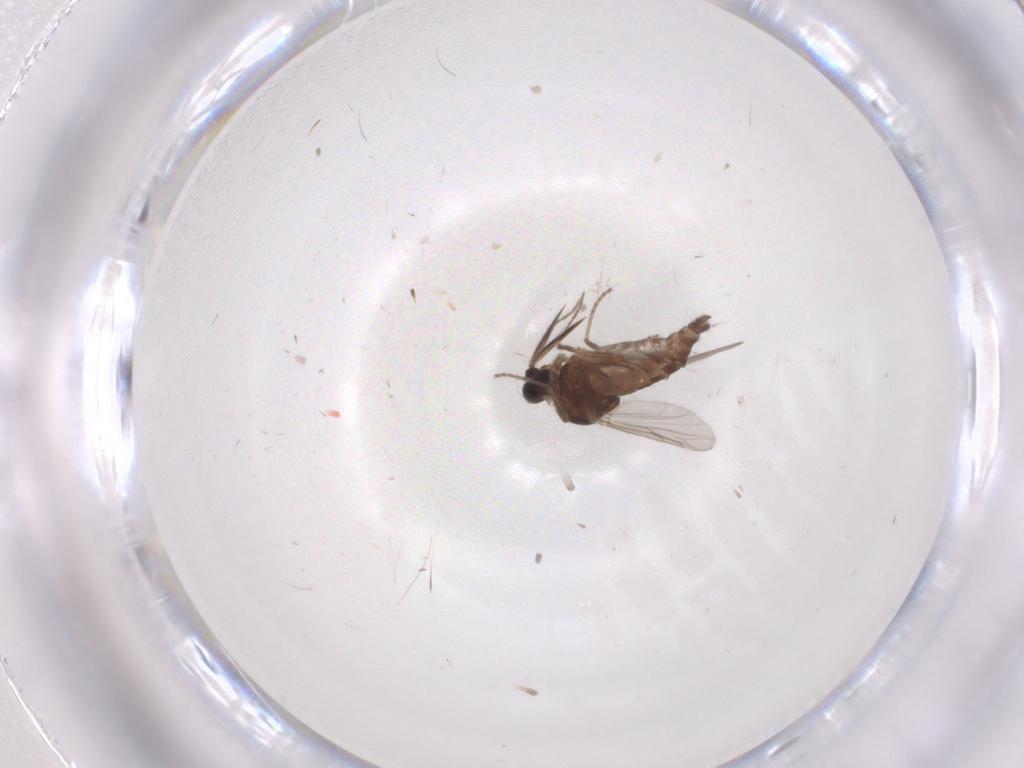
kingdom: Animalia
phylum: Arthropoda
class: Insecta
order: Diptera
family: Ceratopogonidae
